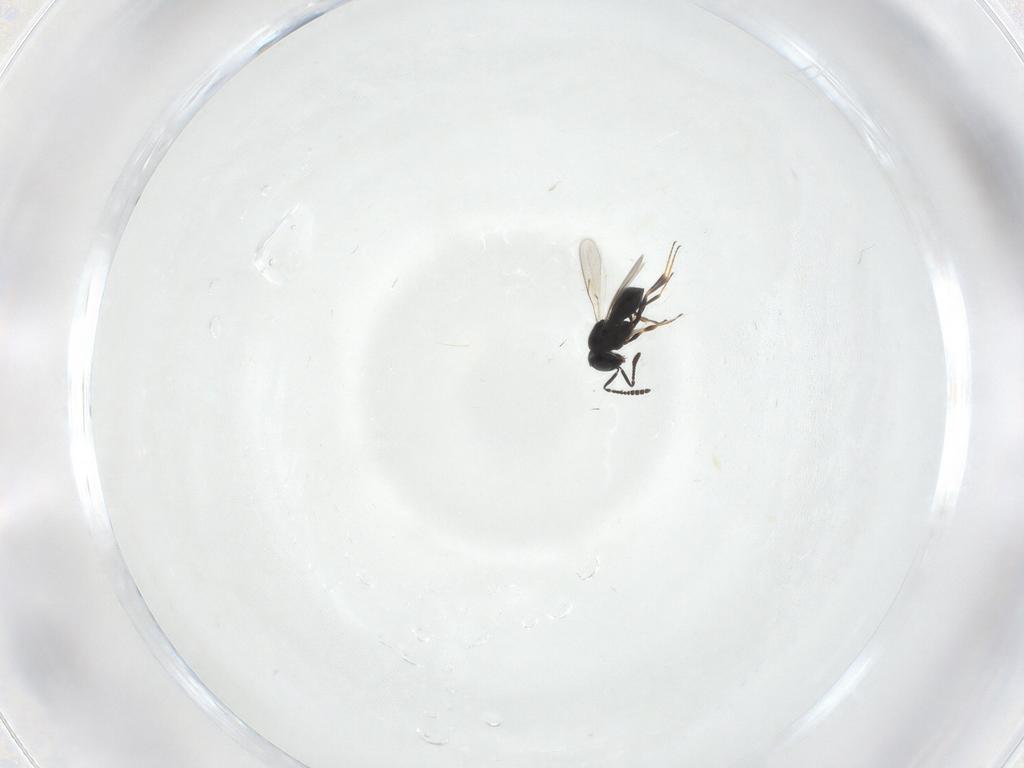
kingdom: Animalia
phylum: Arthropoda
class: Insecta
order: Hymenoptera
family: Scelionidae
